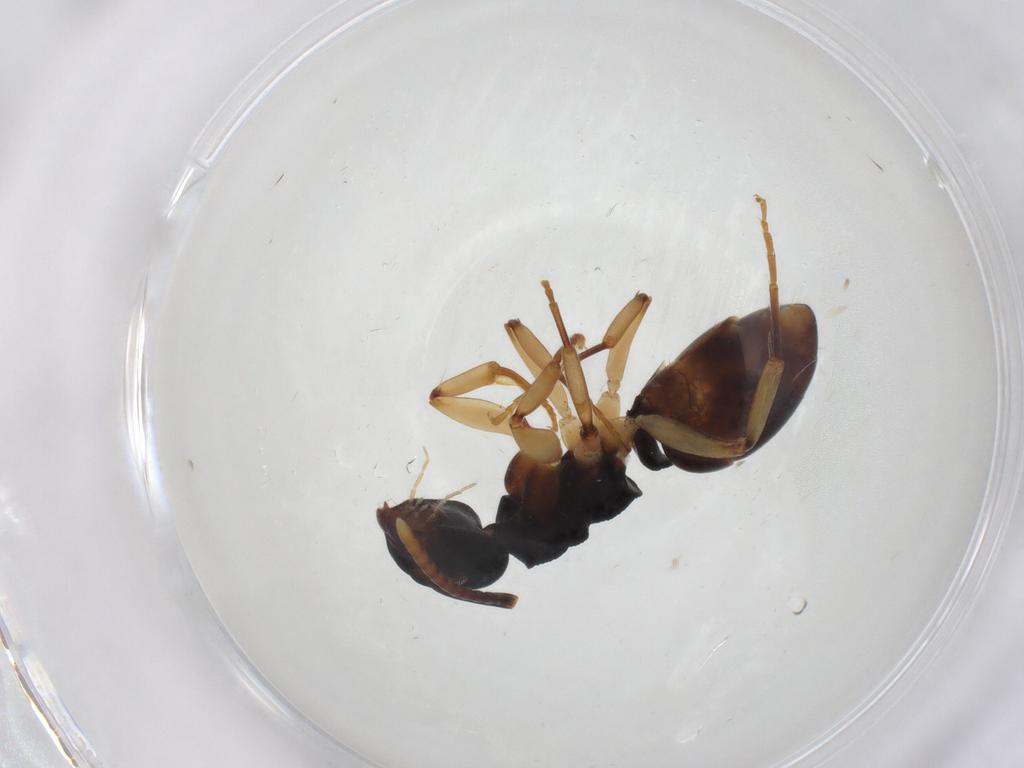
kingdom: Animalia
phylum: Arthropoda
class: Insecta
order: Hymenoptera
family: Formicidae
